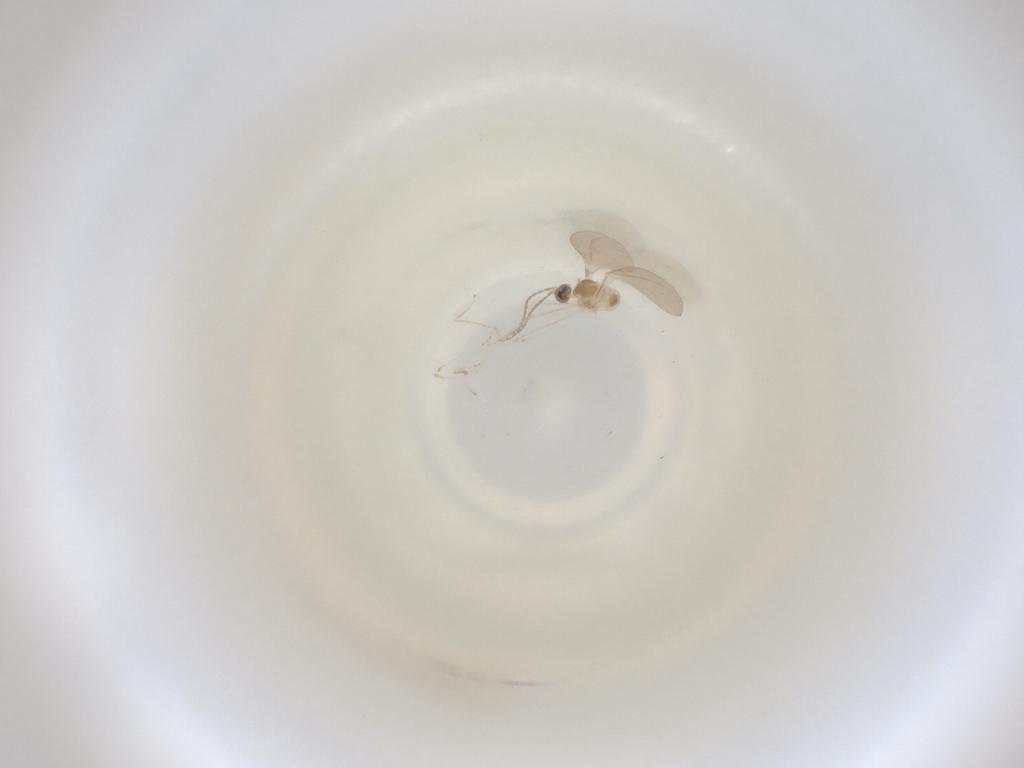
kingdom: Animalia
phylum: Arthropoda
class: Insecta
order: Diptera
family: Cecidomyiidae
